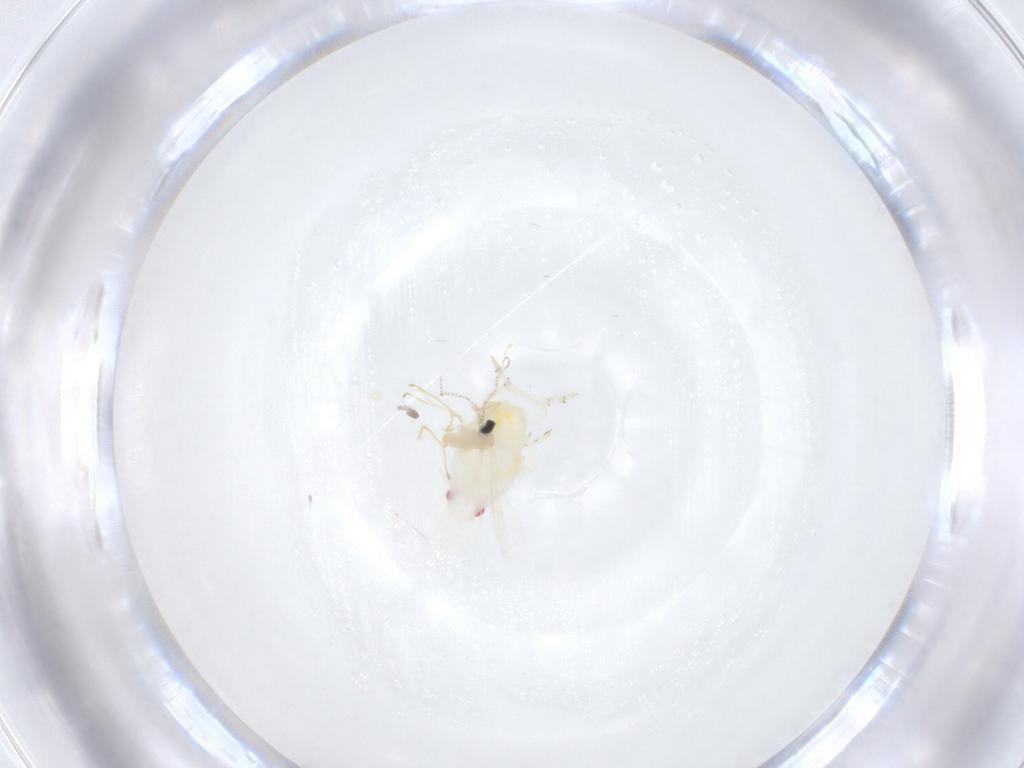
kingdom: Animalia
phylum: Arthropoda
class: Insecta
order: Diptera
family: Cecidomyiidae
